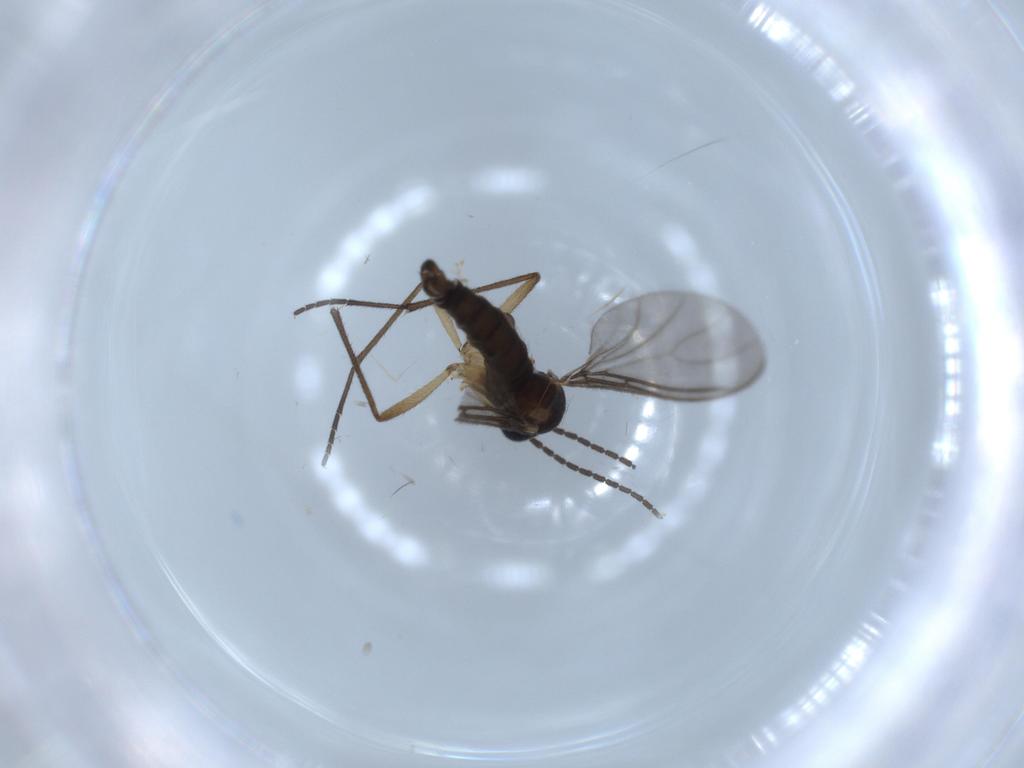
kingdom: Animalia
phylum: Arthropoda
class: Insecta
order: Diptera
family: Sciaridae
